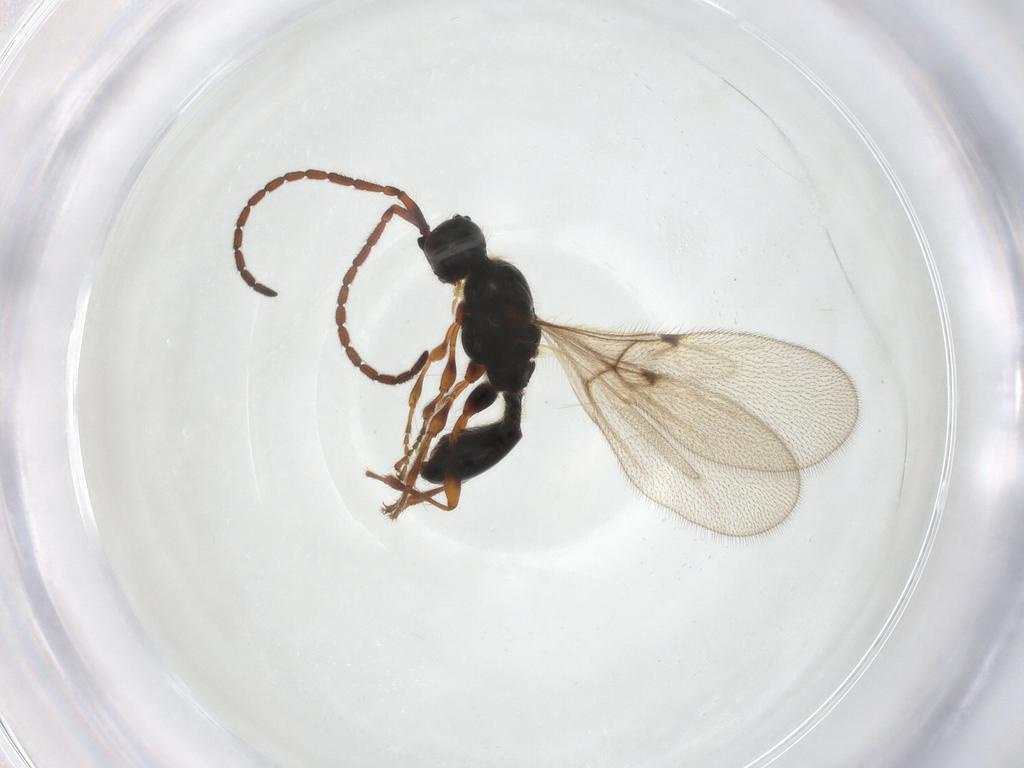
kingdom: Animalia
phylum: Arthropoda
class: Insecta
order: Hymenoptera
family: Diapriidae
